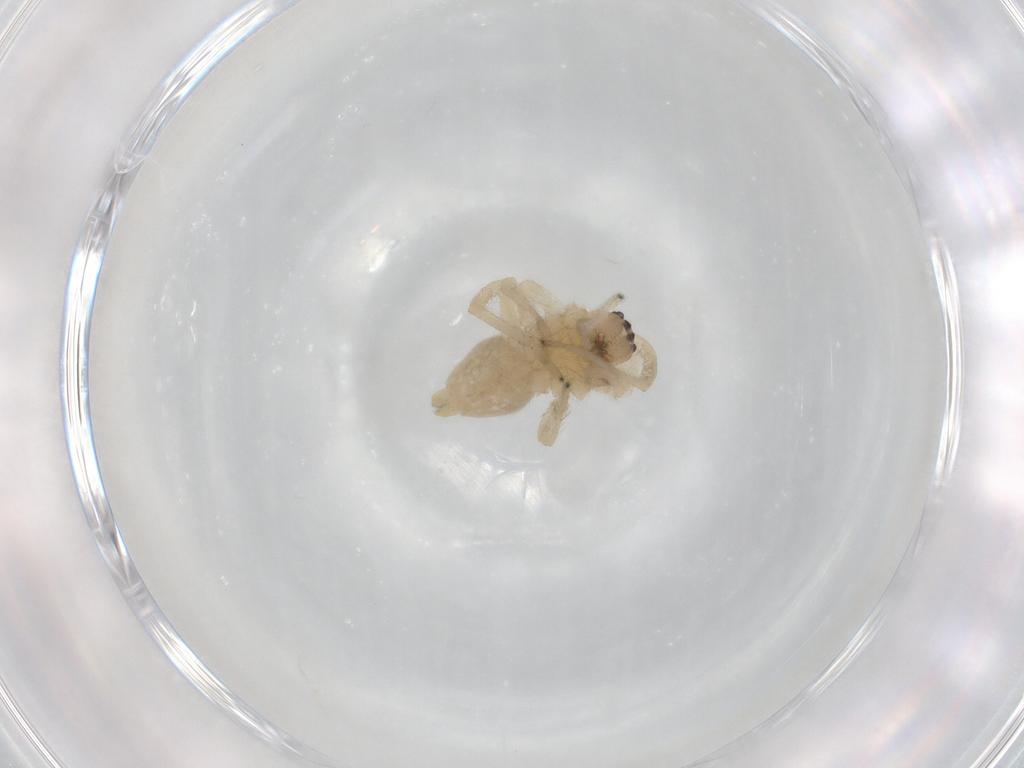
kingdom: Animalia
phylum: Arthropoda
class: Arachnida
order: Araneae
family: Cheiracanthiidae
